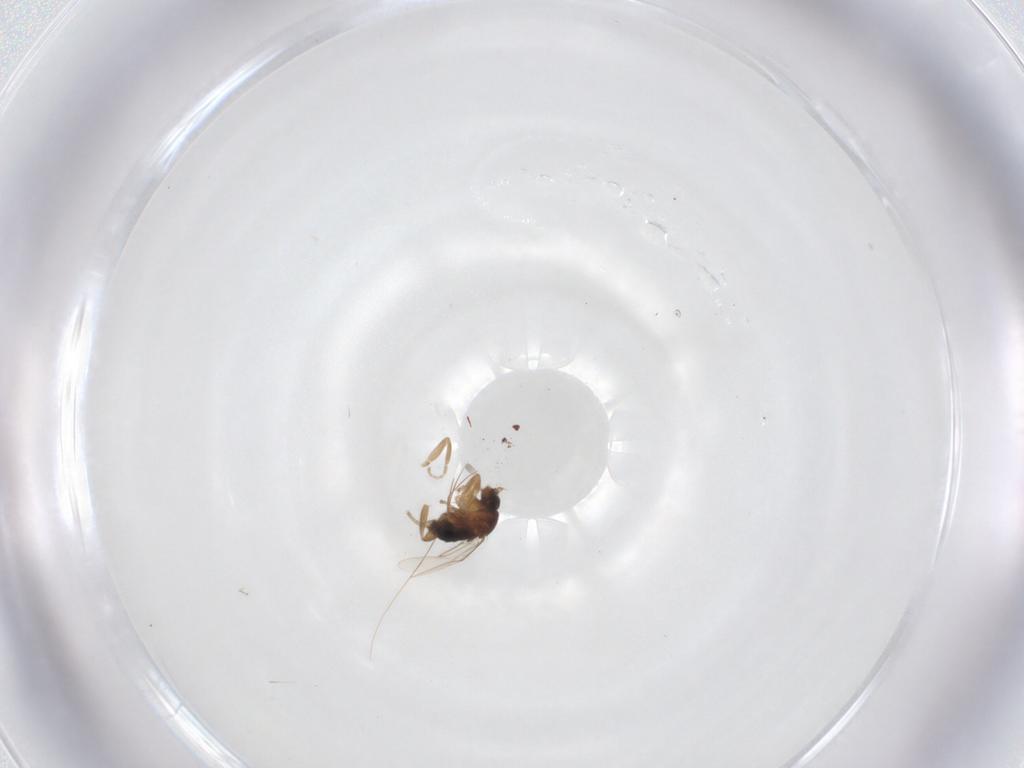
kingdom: Animalia
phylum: Arthropoda
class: Insecta
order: Diptera
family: Phoridae
